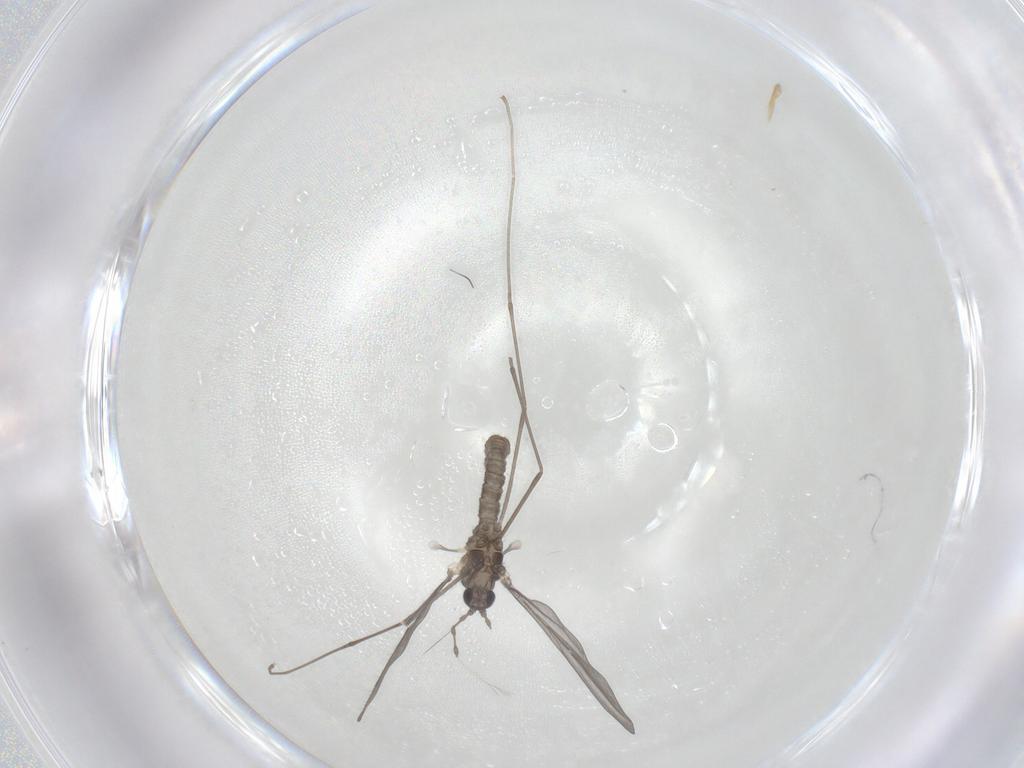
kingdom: Animalia
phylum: Arthropoda
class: Insecta
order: Diptera
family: Cecidomyiidae
